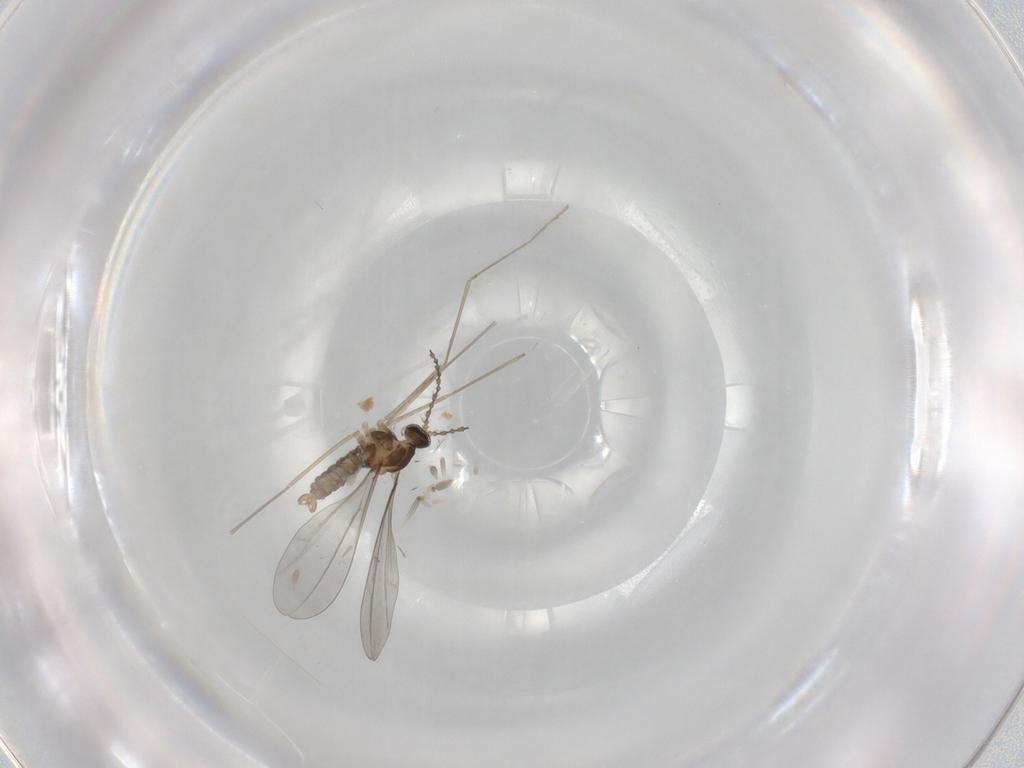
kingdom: Animalia
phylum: Arthropoda
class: Insecta
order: Diptera
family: Cecidomyiidae
